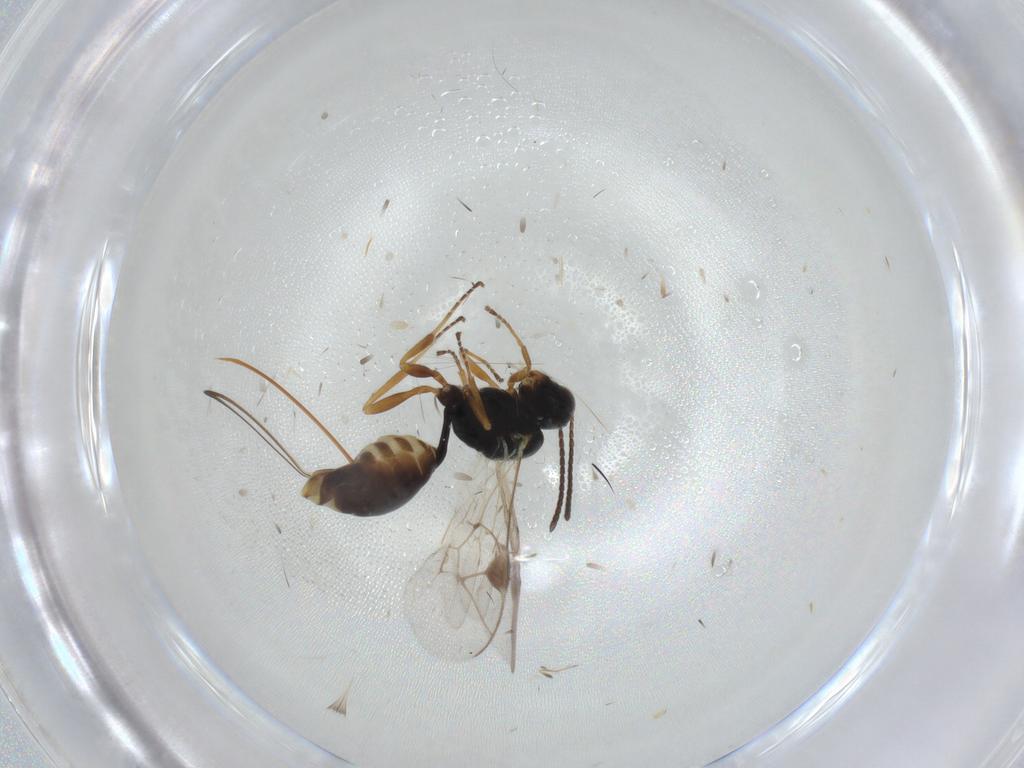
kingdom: Animalia
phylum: Arthropoda
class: Insecta
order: Hymenoptera
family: Ichneumonidae
